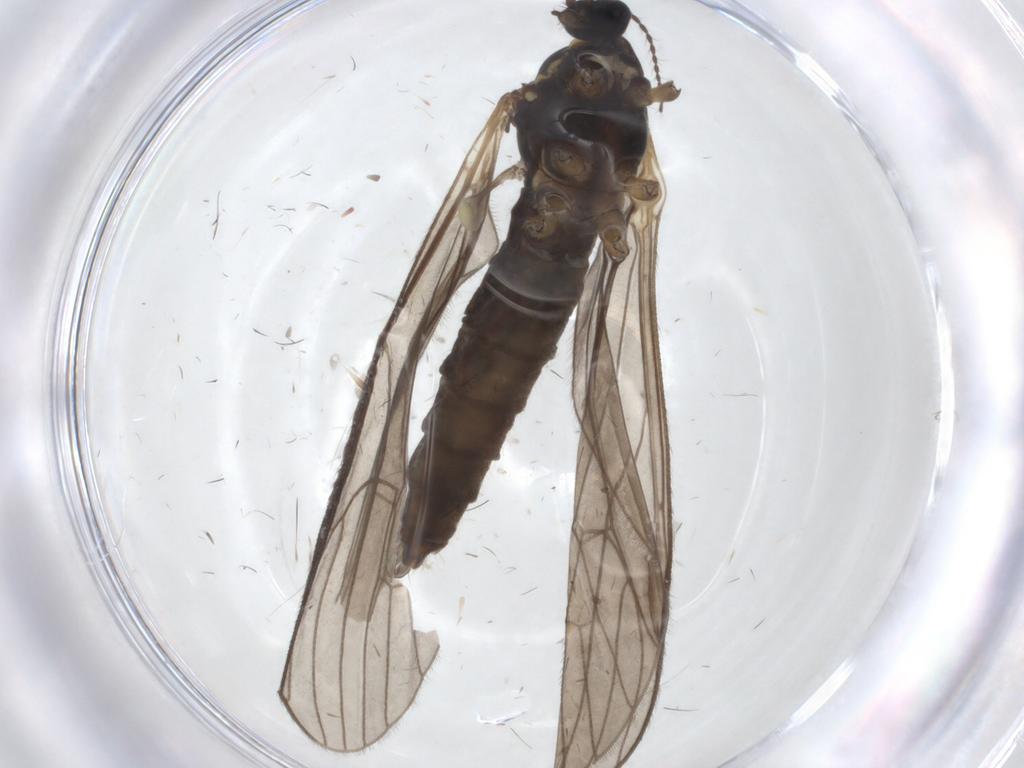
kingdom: Animalia
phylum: Arthropoda
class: Insecta
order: Diptera
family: Limoniidae
